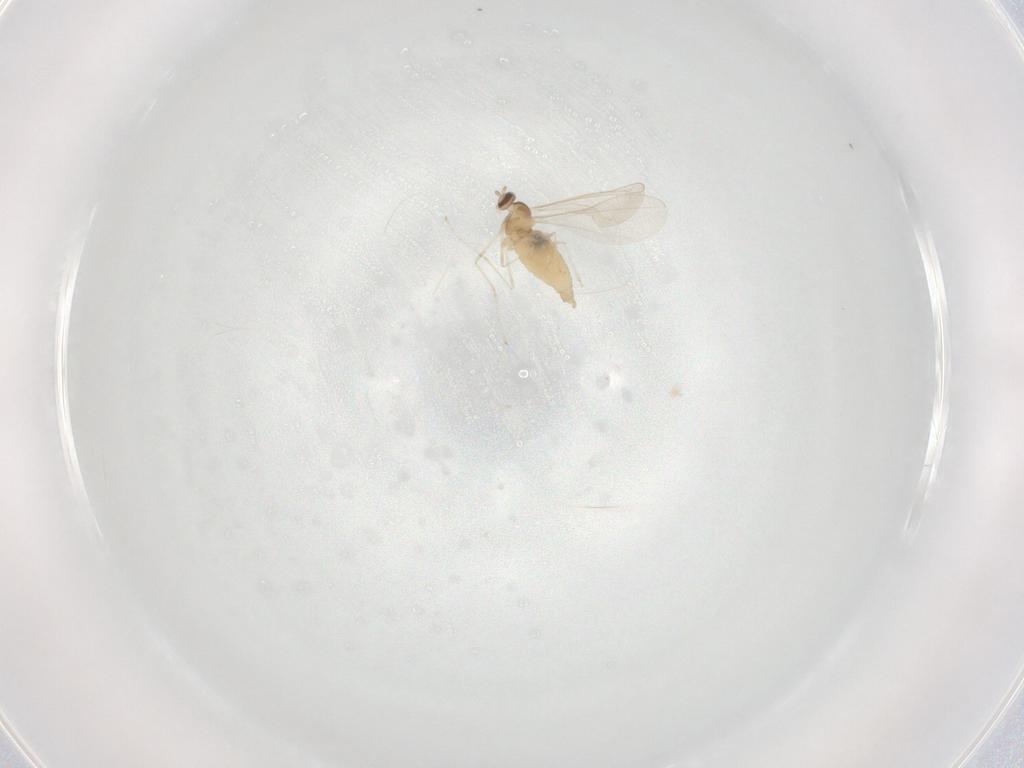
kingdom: Animalia
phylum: Arthropoda
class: Insecta
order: Diptera
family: Cecidomyiidae
